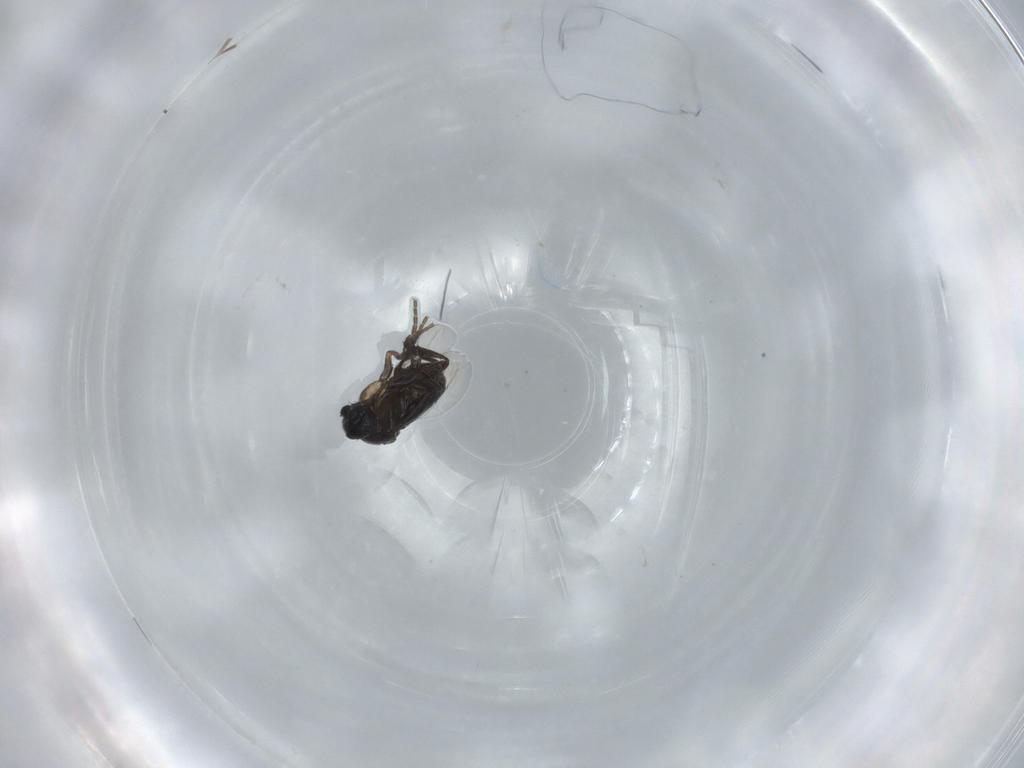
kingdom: Animalia
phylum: Arthropoda
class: Insecta
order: Diptera
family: Phoridae
